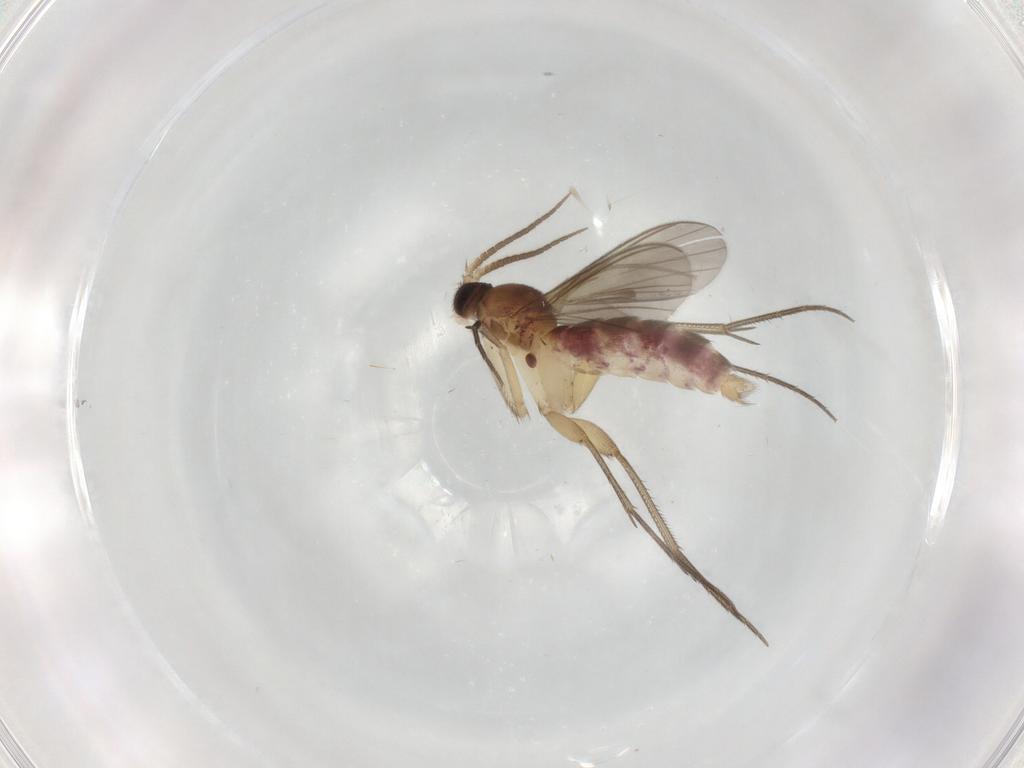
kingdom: Animalia
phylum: Arthropoda
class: Insecta
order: Diptera
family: Mycetophilidae
